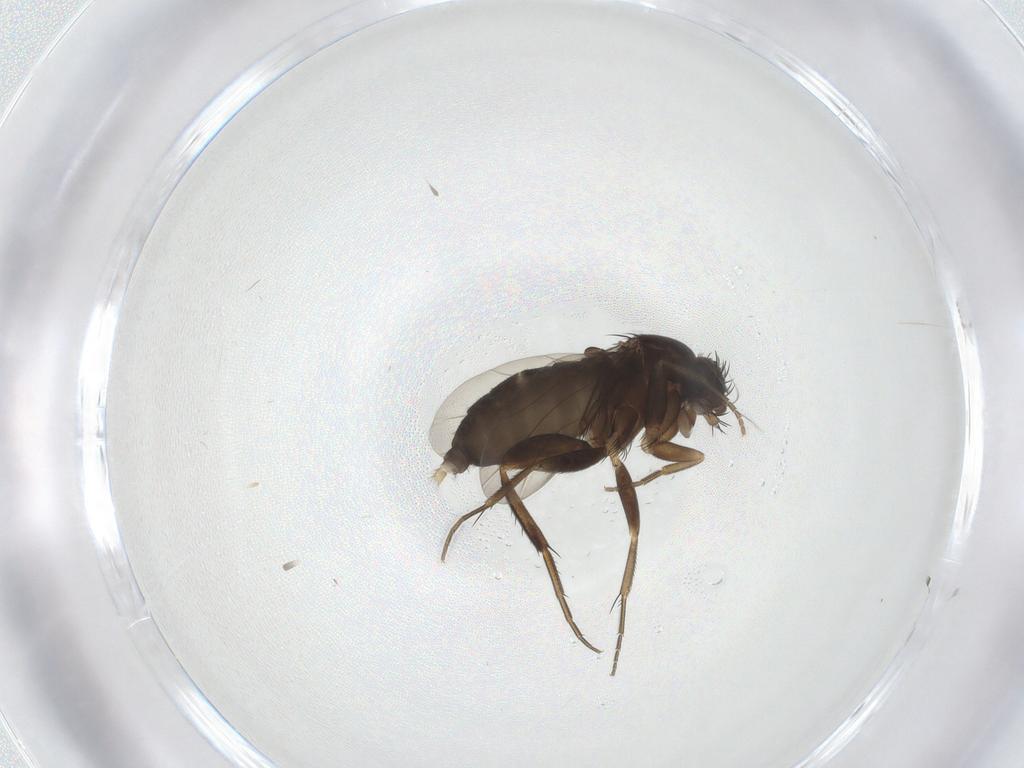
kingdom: Animalia
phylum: Arthropoda
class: Insecta
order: Diptera
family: Phoridae
